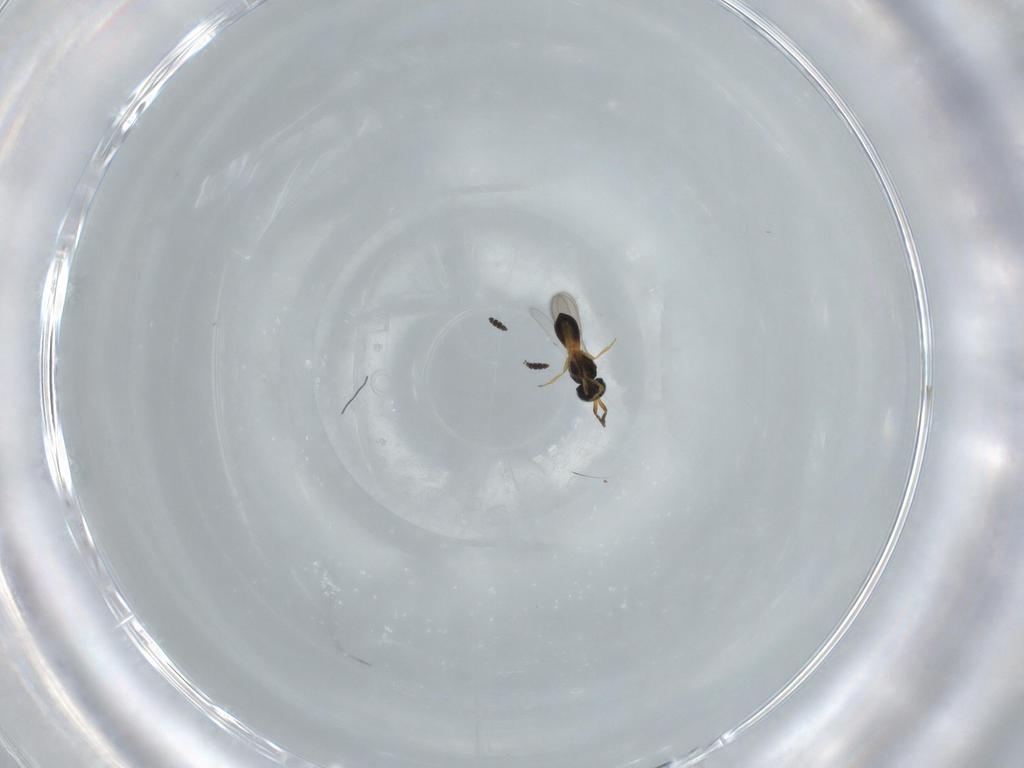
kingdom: Animalia
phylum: Arthropoda
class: Insecta
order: Hymenoptera
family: Scelionidae
